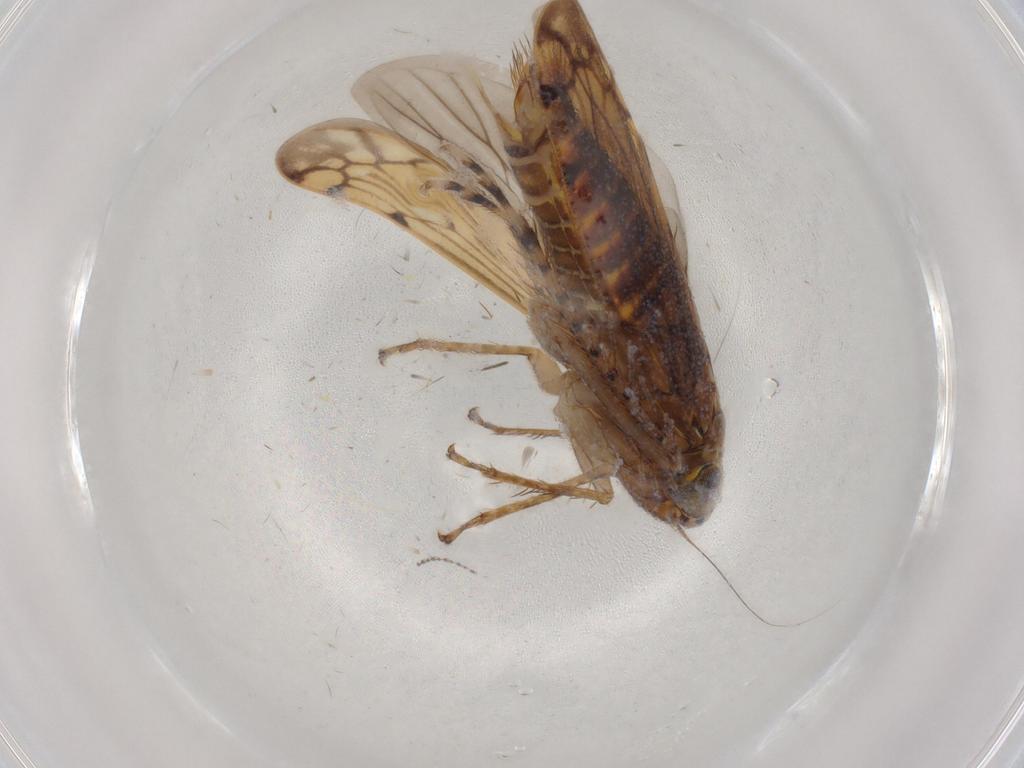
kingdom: Animalia
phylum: Arthropoda
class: Insecta
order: Hemiptera
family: Cicadellidae
